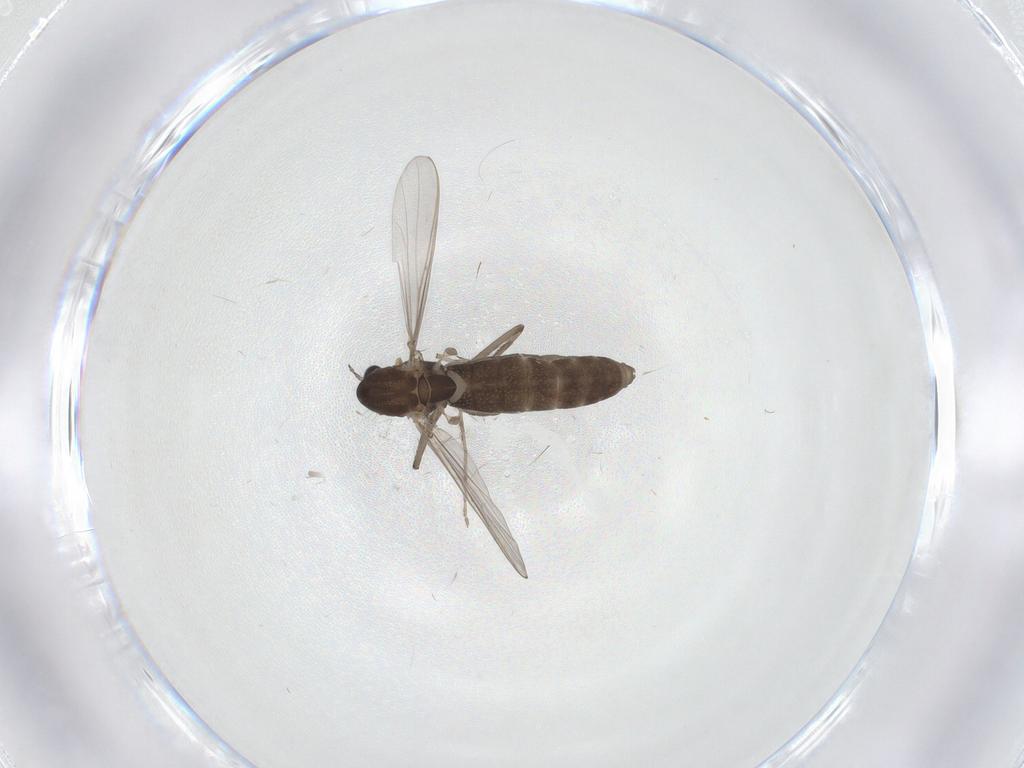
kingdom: Animalia
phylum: Arthropoda
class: Insecta
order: Diptera
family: Chironomidae
